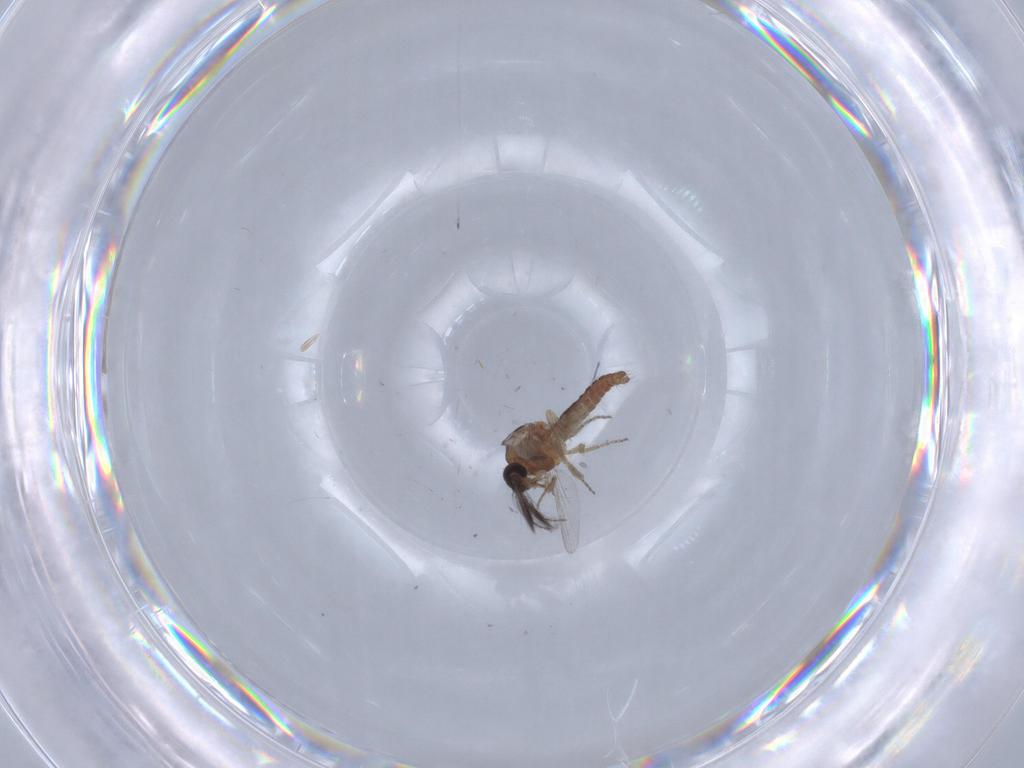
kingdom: Animalia
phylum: Arthropoda
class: Insecta
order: Diptera
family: Ceratopogonidae
